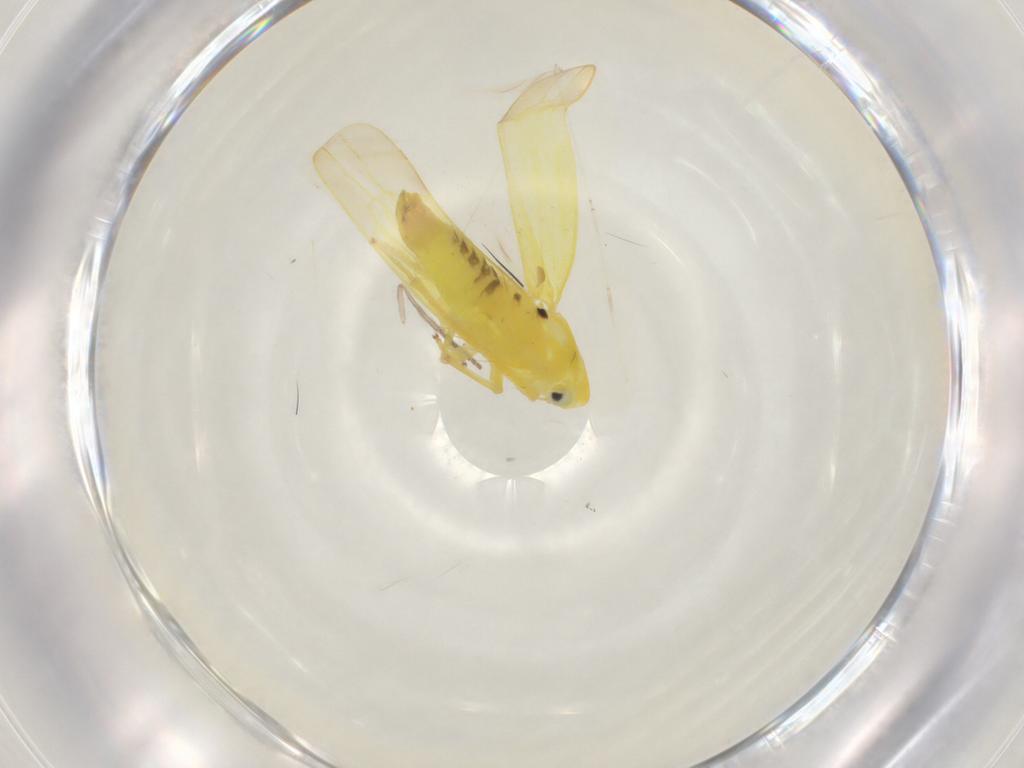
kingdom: Animalia
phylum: Arthropoda
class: Insecta
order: Hemiptera
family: Cicadellidae
